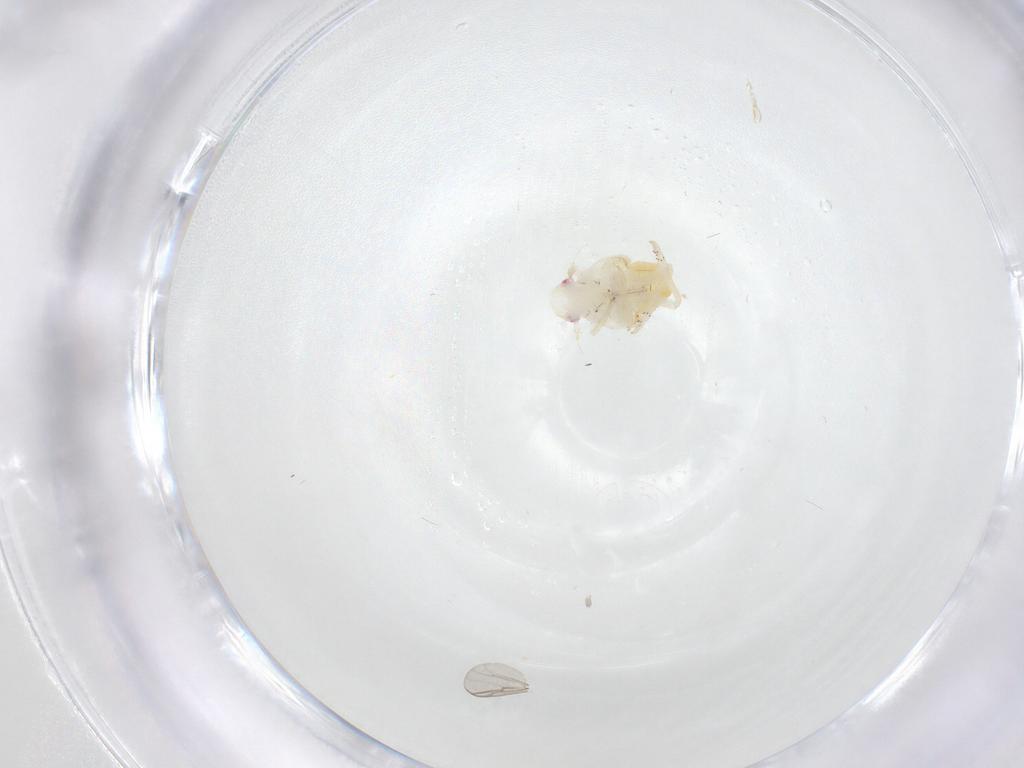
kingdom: Animalia
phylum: Arthropoda
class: Insecta
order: Hemiptera
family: Fulgoroidea_incertae_sedis
